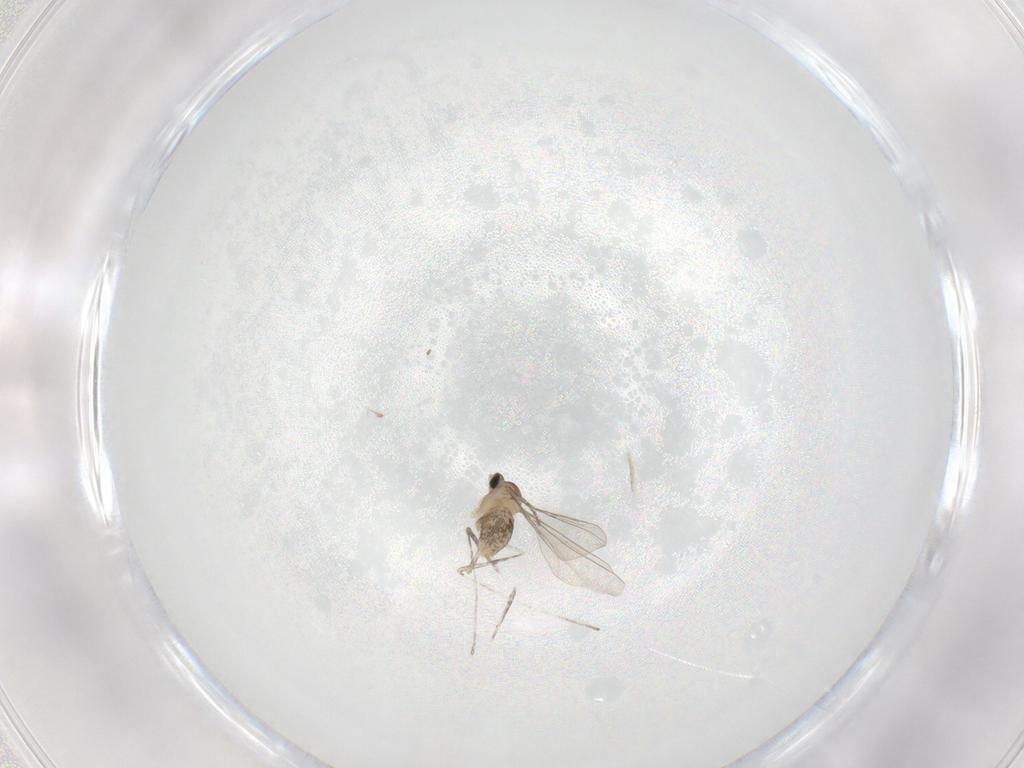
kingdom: Animalia
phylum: Arthropoda
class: Insecta
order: Diptera
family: Cecidomyiidae
